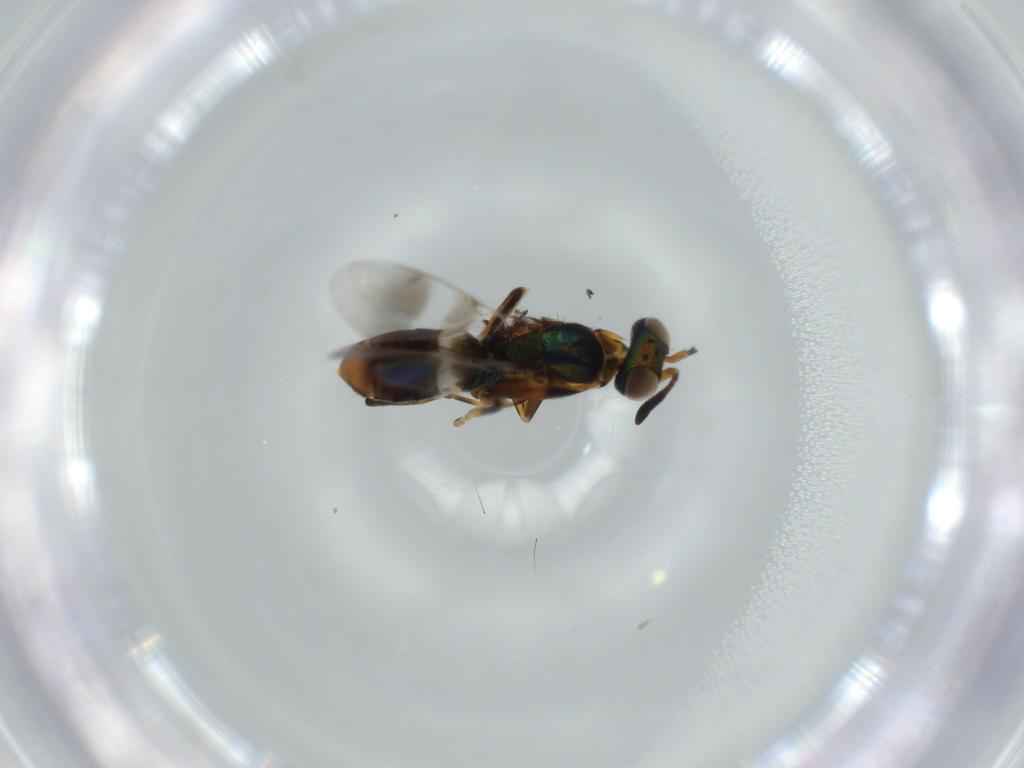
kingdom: Animalia
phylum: Arthropoda
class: Insecta
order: Hymenoptera
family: Eupelmidae
